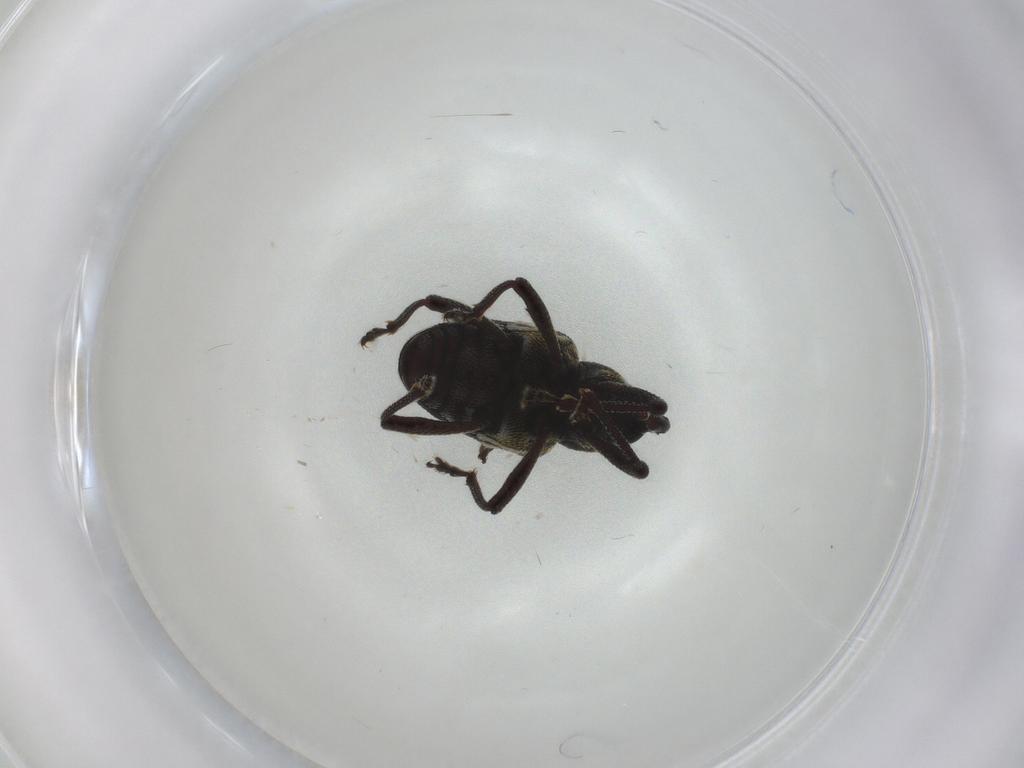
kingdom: Animalia
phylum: Arthropoda
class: Insecta
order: Coleoptera
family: Curculionidae
